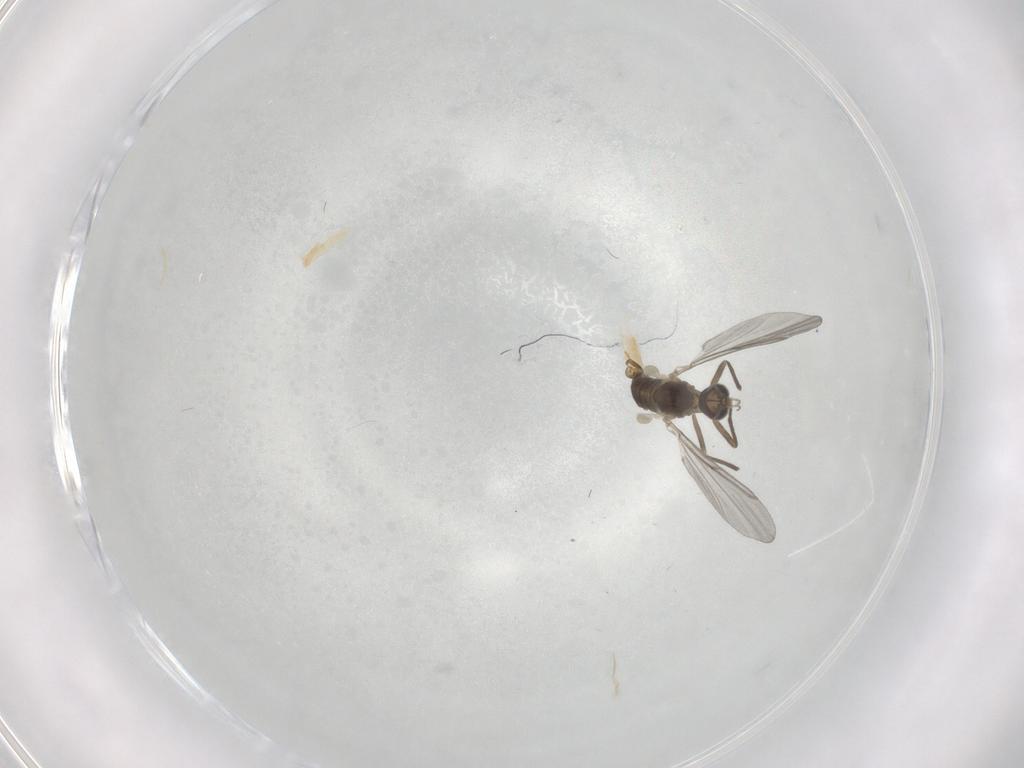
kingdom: Animalia
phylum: Arthropoda
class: Insecta
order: Diptera
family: Cecidomyiidae
